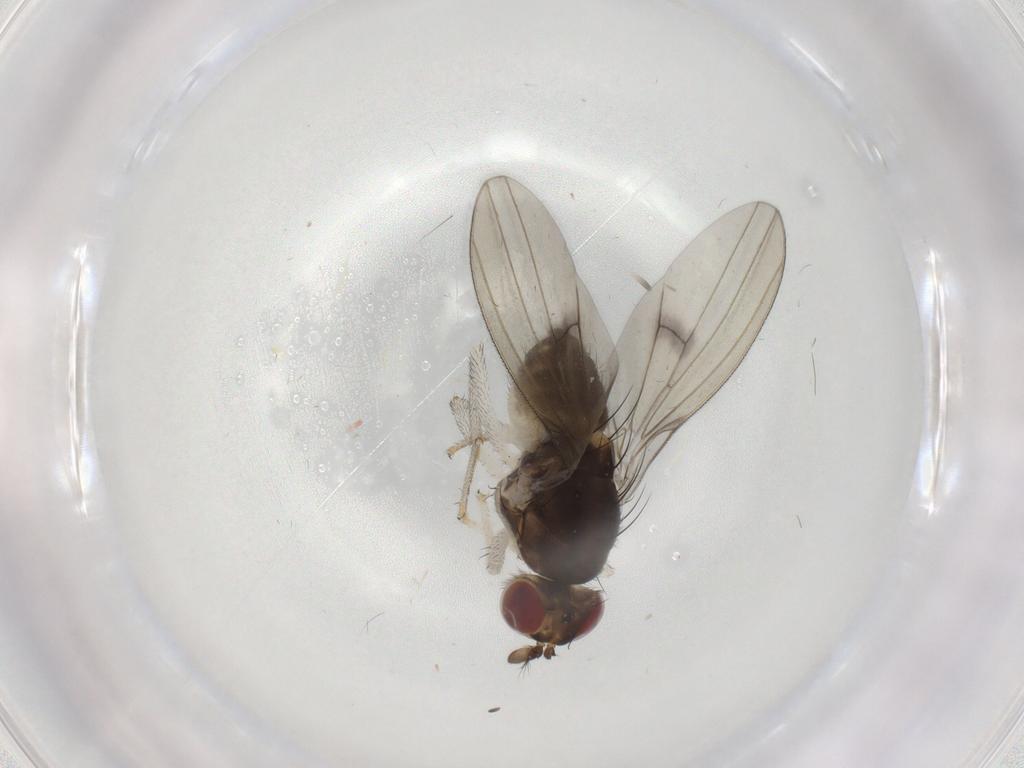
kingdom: Animalia
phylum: Arthropoda
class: Insecta
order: Diptera
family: Lauxaniidae
